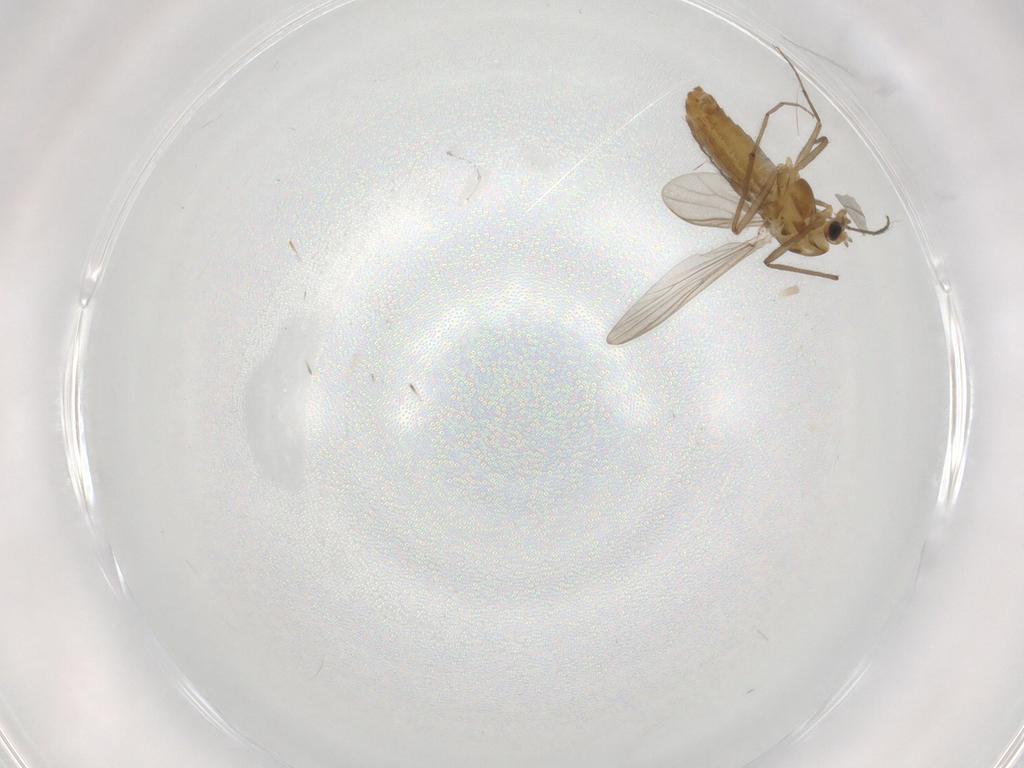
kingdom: Animalia
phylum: Arthropoda
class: Insecta
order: Diptera
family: Chironomidae
